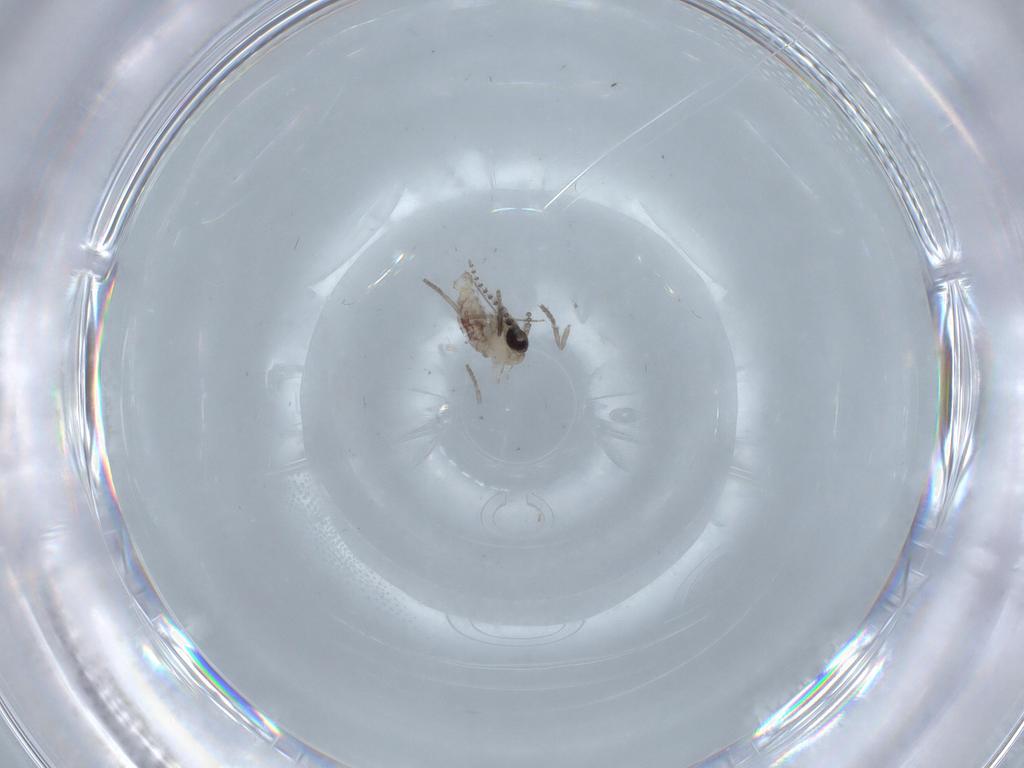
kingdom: Animalia
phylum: Arthropoda
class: Insecta
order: Diptera
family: Psychodidae
